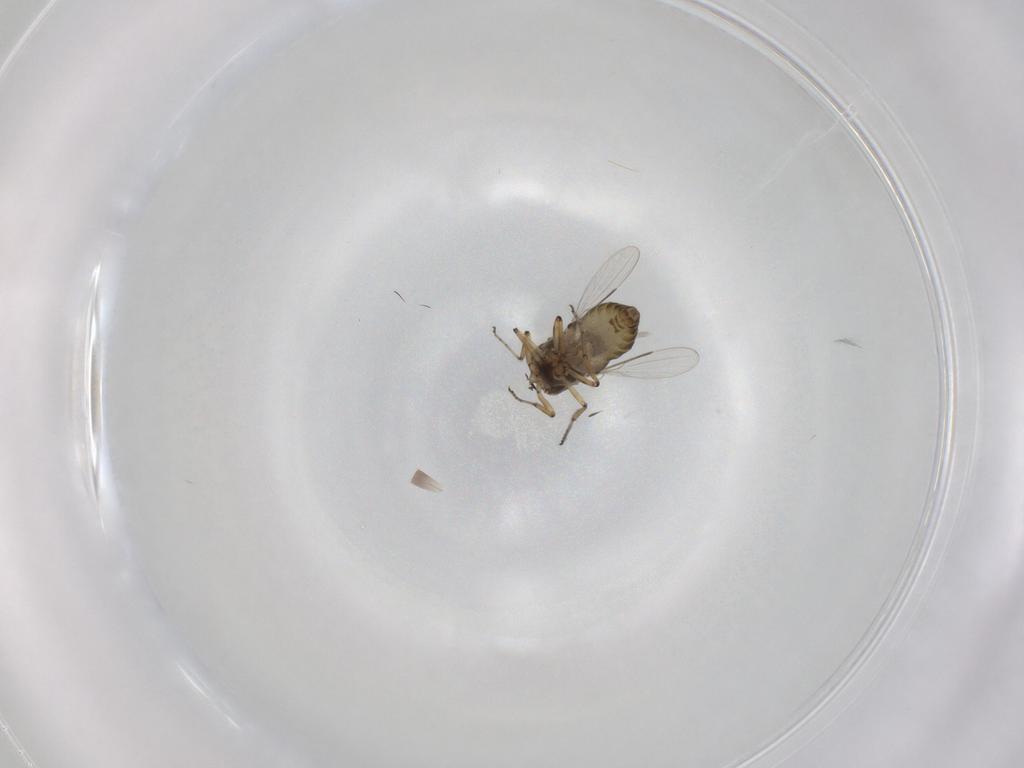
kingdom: Animalia
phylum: Arthropoda
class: Insecta
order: Diptera
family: Ceratopogonidae
